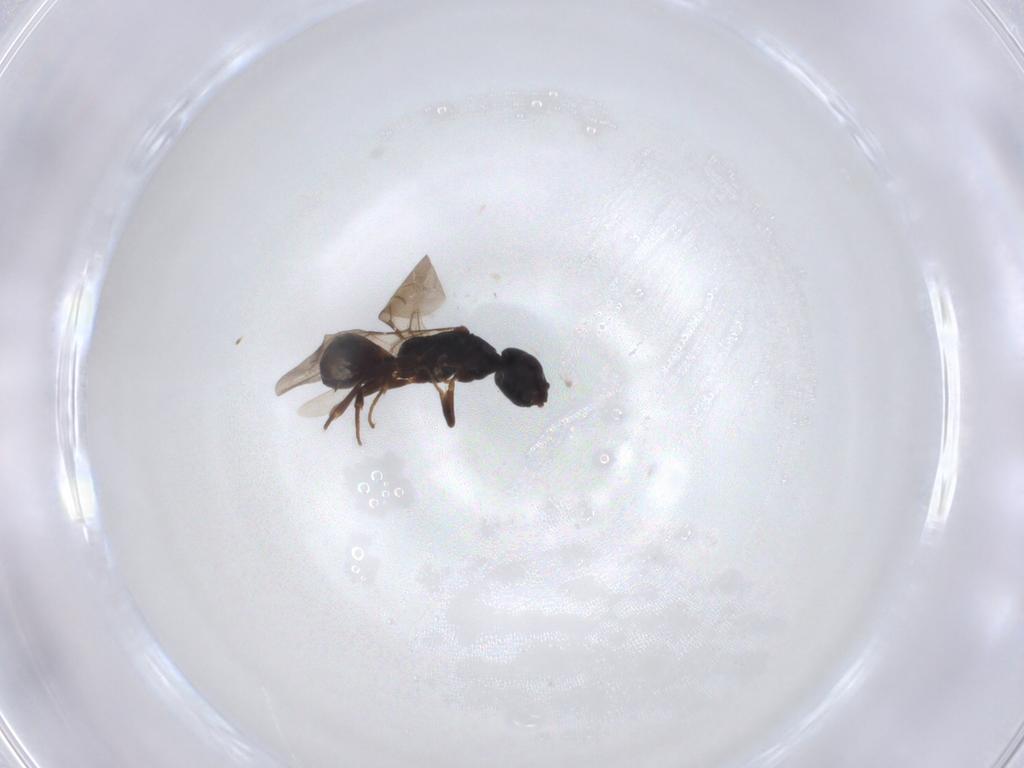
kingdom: Animalia
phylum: Arthropoda
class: Insecta
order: Hymenoptera
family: Bethylidae
